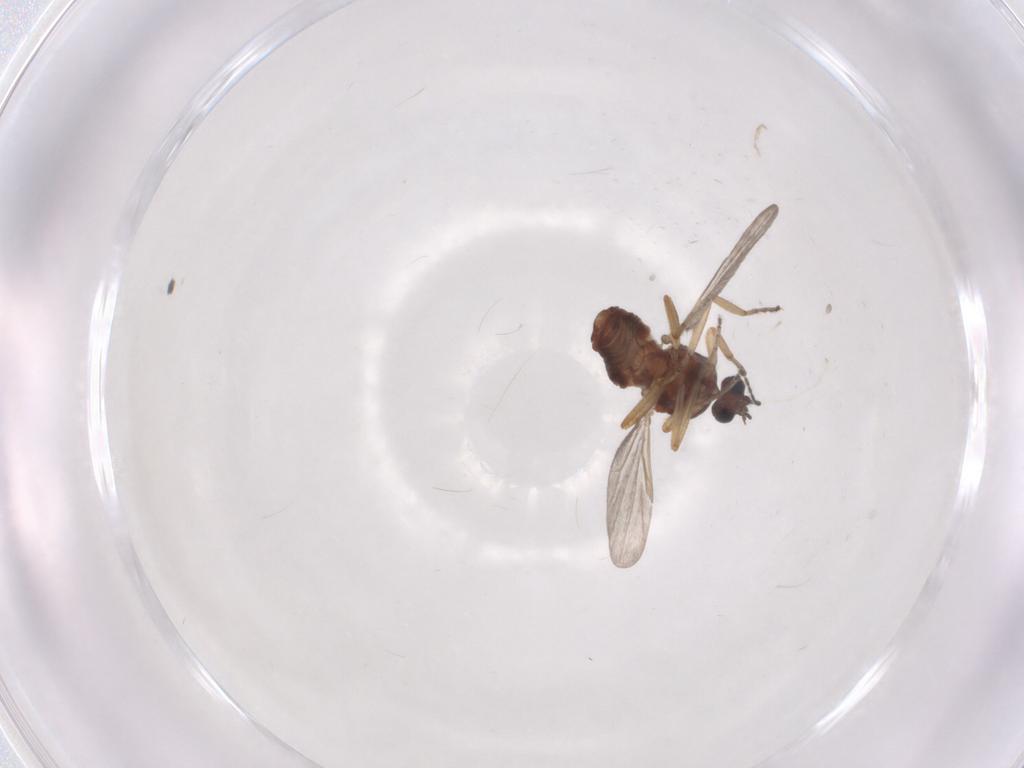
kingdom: Animalia
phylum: Arthropoda
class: Insecta
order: Diptera
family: Ceratopogonidae
